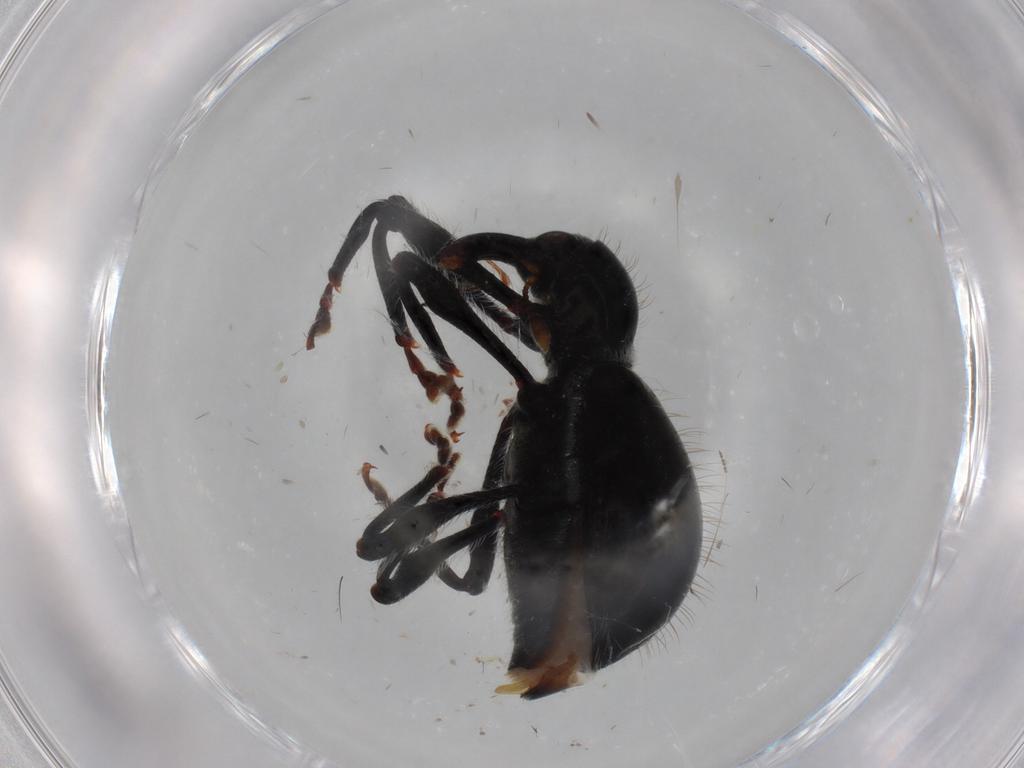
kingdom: Animalia
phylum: Arthropoda
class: Insecta
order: Coleoptera
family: Curculionidae
